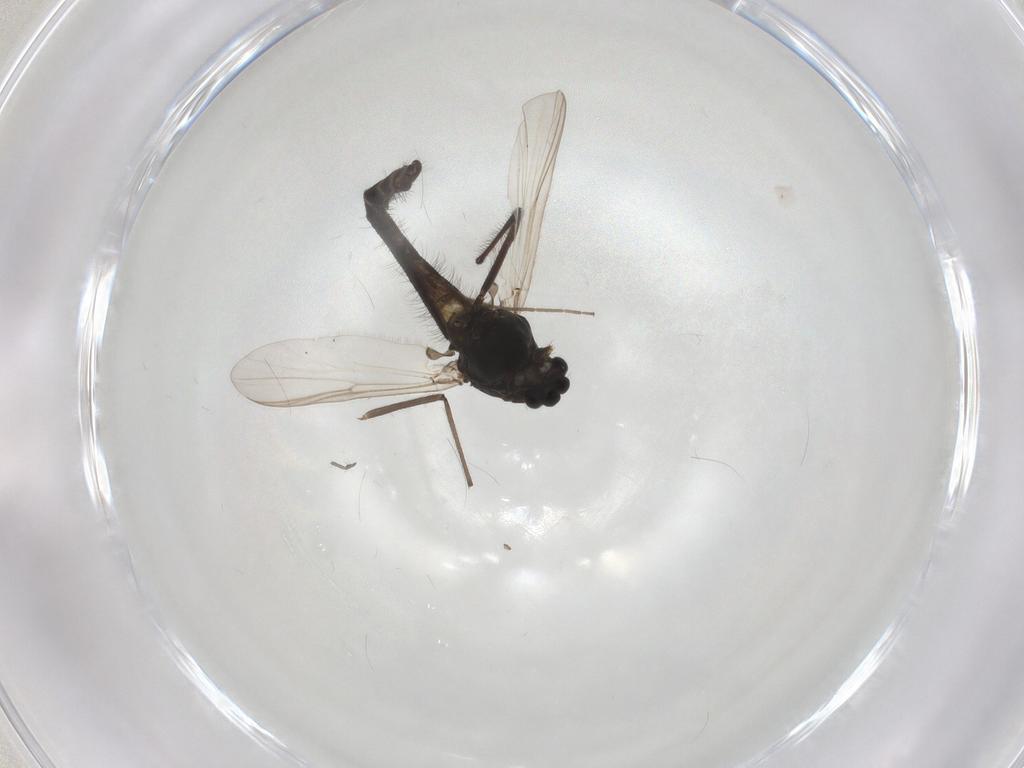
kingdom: Animalia
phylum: Arthropoda
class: Insecta
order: Diptera
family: Chironomidae
